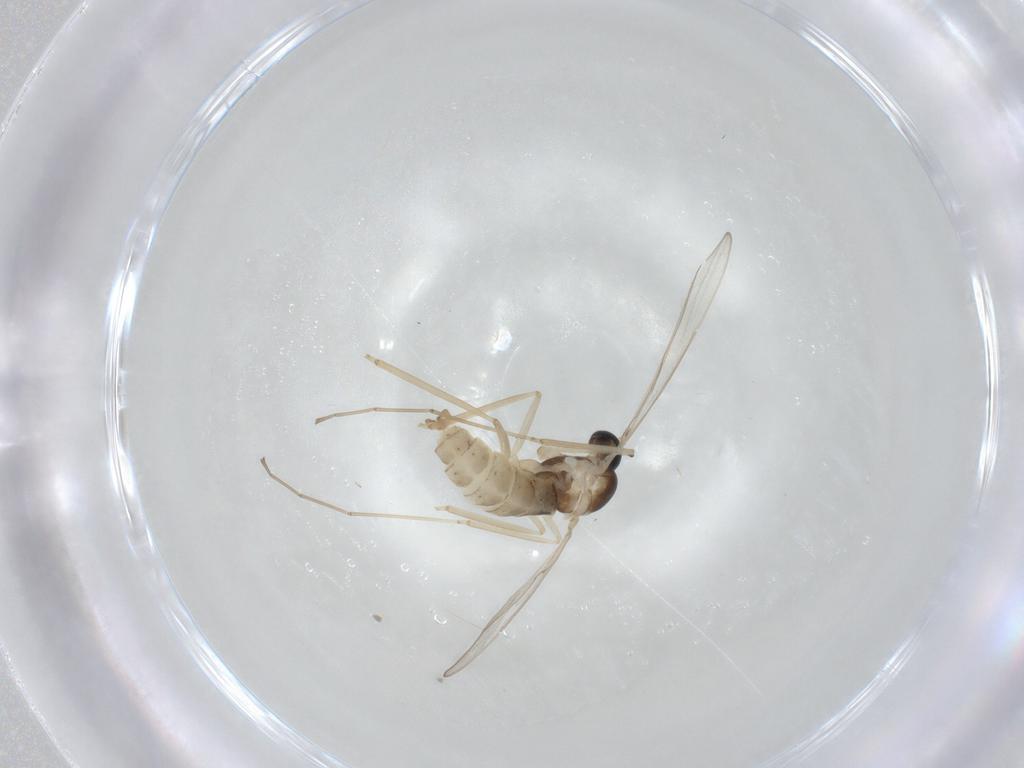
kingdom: Animalia
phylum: Arthropoda
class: Insecta
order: Diptera
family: Cecidomyiidae
